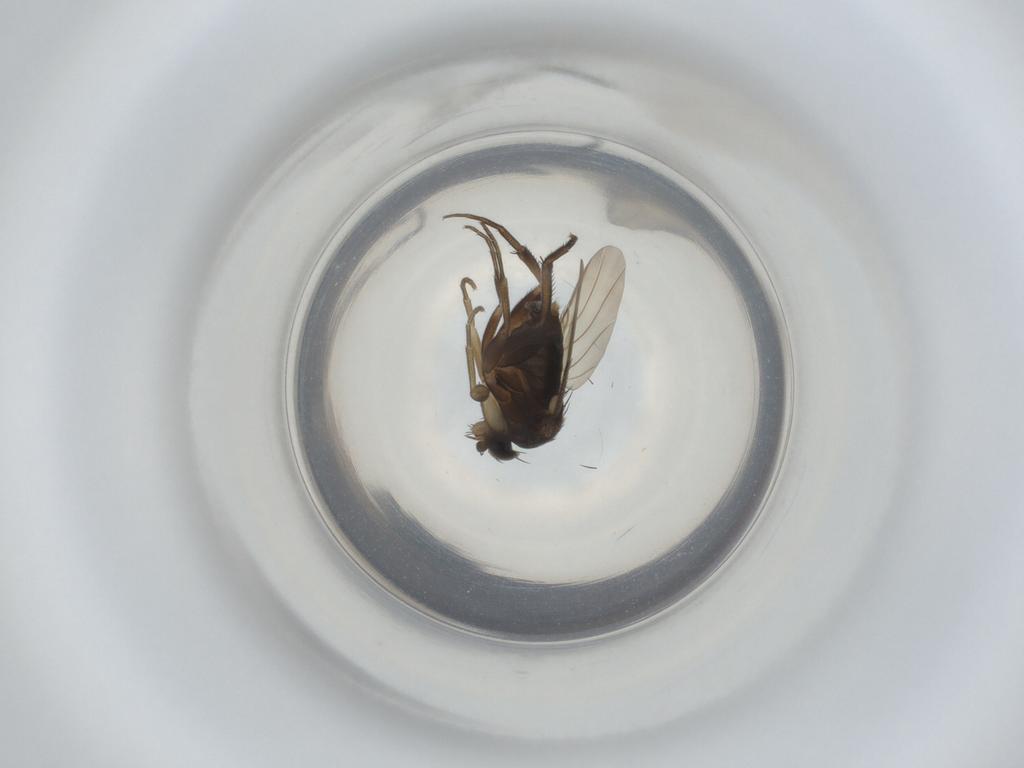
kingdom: Animalia
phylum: Arthropoda
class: Insecta
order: Diptera
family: Phoridae
